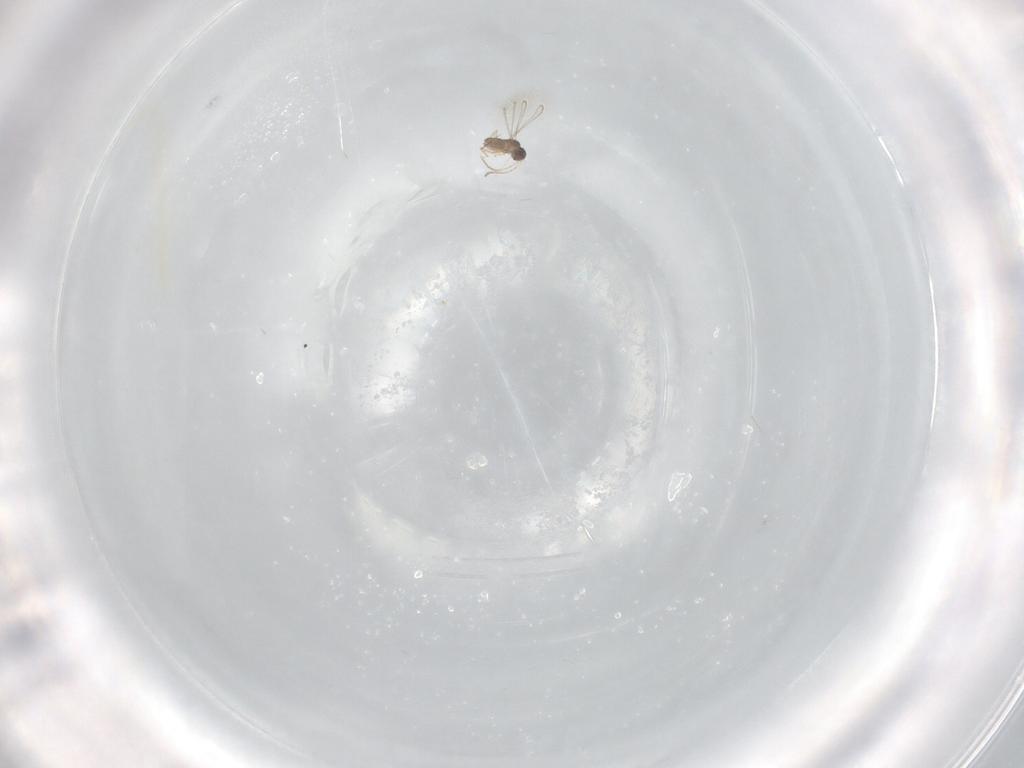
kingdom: Animalia
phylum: Arthropoda
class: Insecta
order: Hymenoptera
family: Mymaridae
